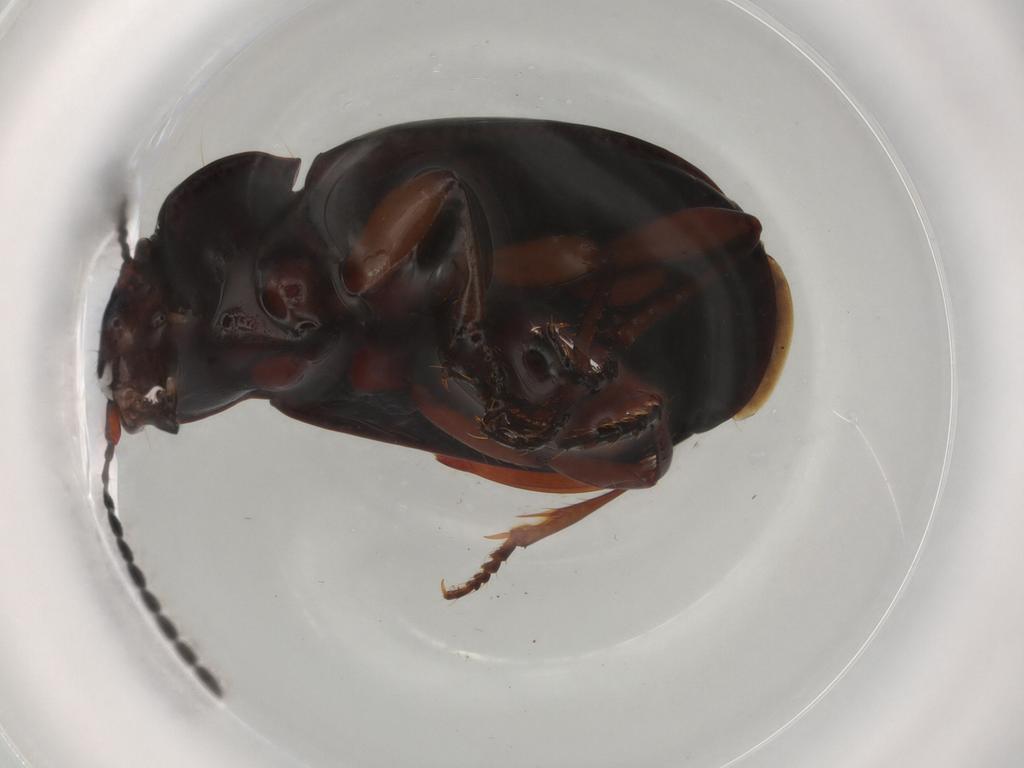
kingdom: Animalia
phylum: Arthropoda
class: Insecta
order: Coleoptera
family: Carabidae
